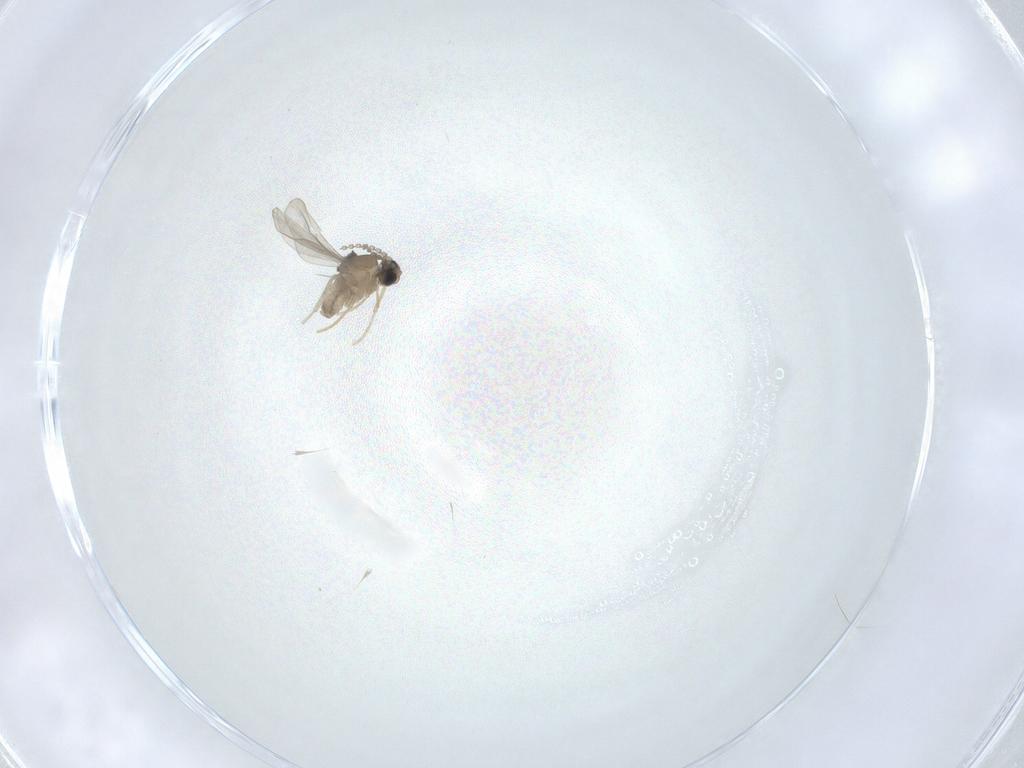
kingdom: Animalia
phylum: Arthropoda
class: Insecta
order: Diptera
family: Cecidomyiidae
